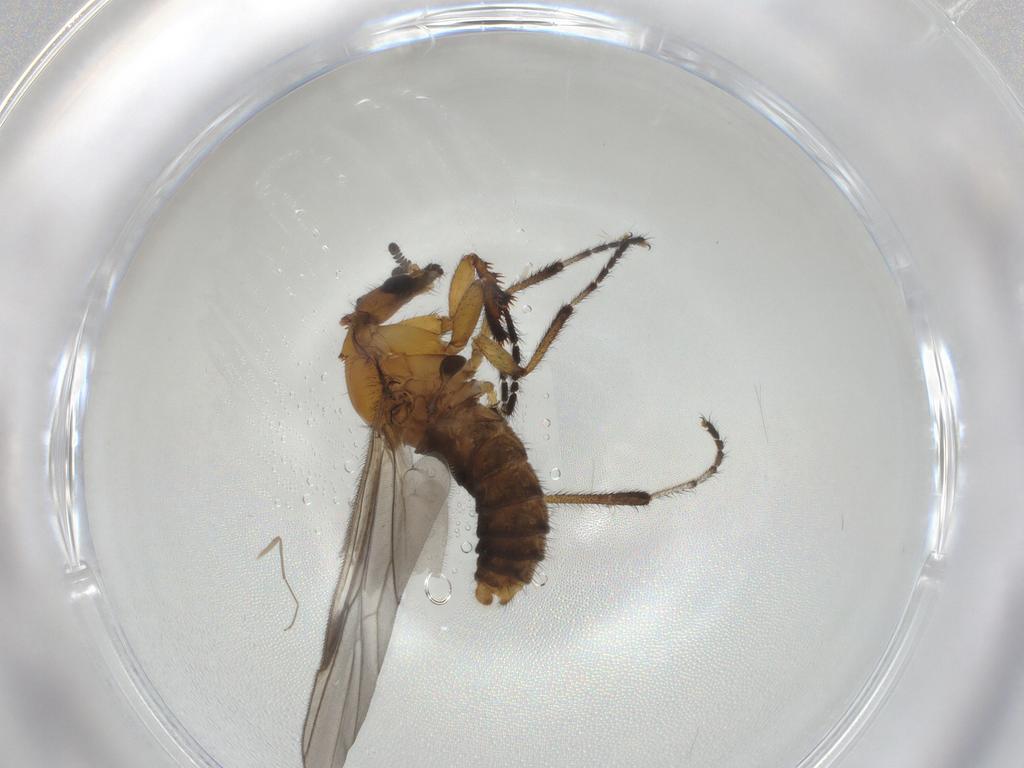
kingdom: Animalia
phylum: Arthropoda
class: Insecta
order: Diptera
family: Bibionidae
